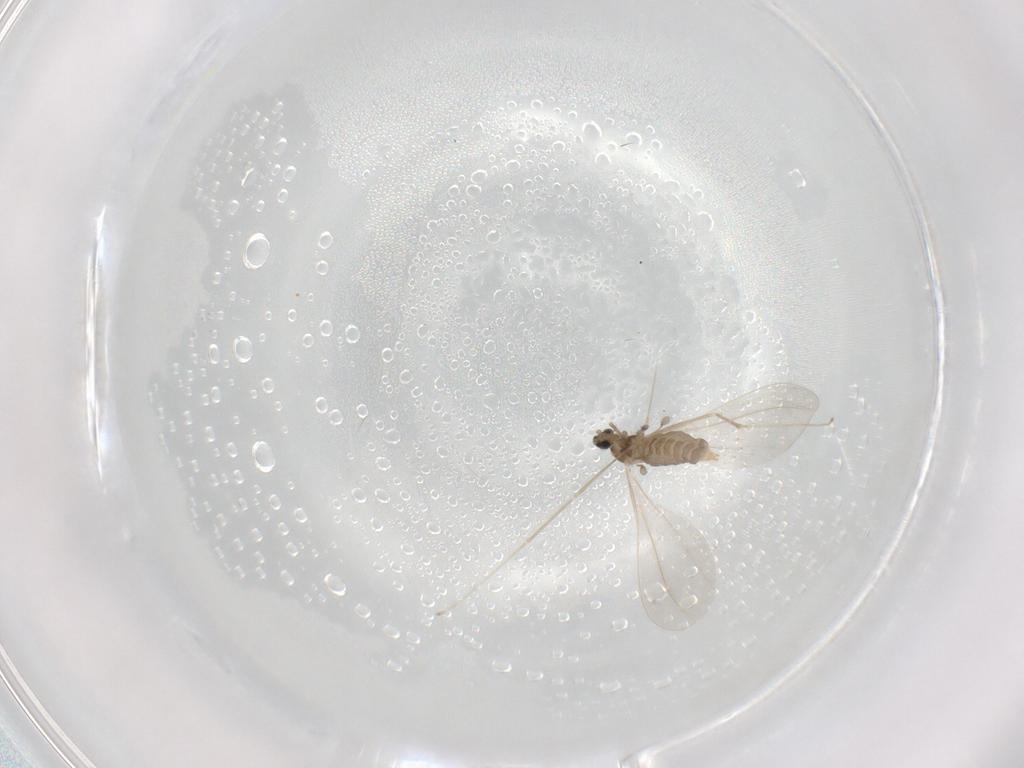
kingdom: Animalia
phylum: Arthropoda
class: Insecta
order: Diptera
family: Cecidomyiidae
